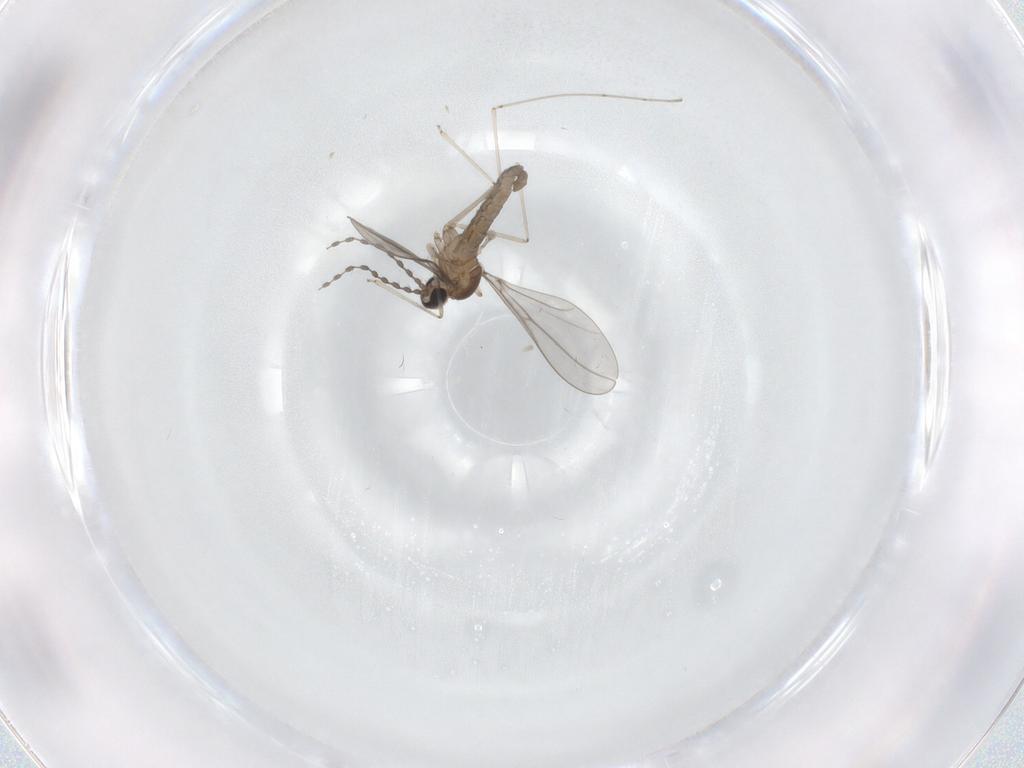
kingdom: Animalia
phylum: Arthropoda
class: Insecta
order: Diptera
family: Cecidomyiidae
